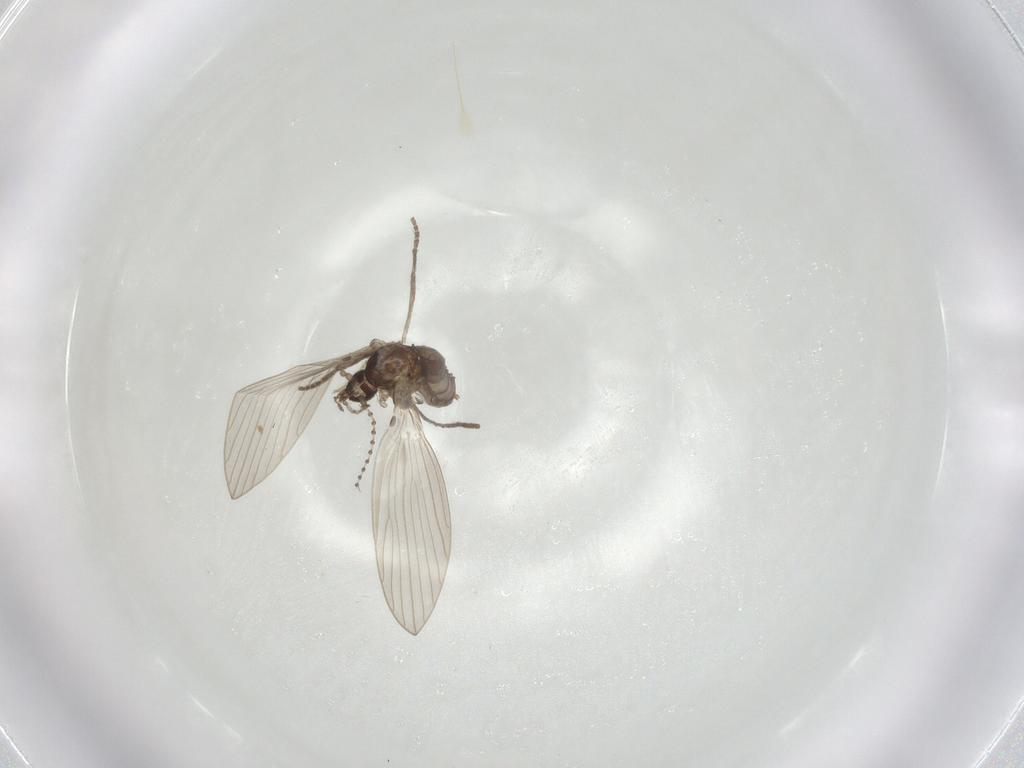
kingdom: Animalia
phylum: Arthropoda
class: Insecta
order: Diptera
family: Psychodidae
